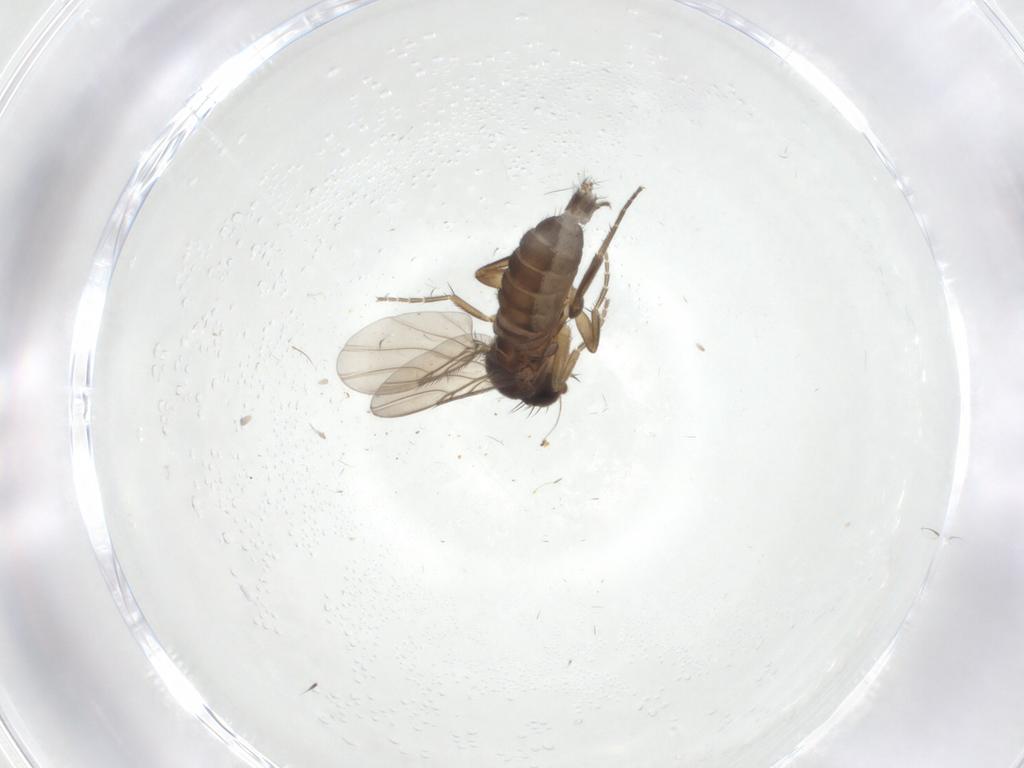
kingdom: Animalia
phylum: Arthropoda
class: Insecta
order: Diptera
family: Phoridae
